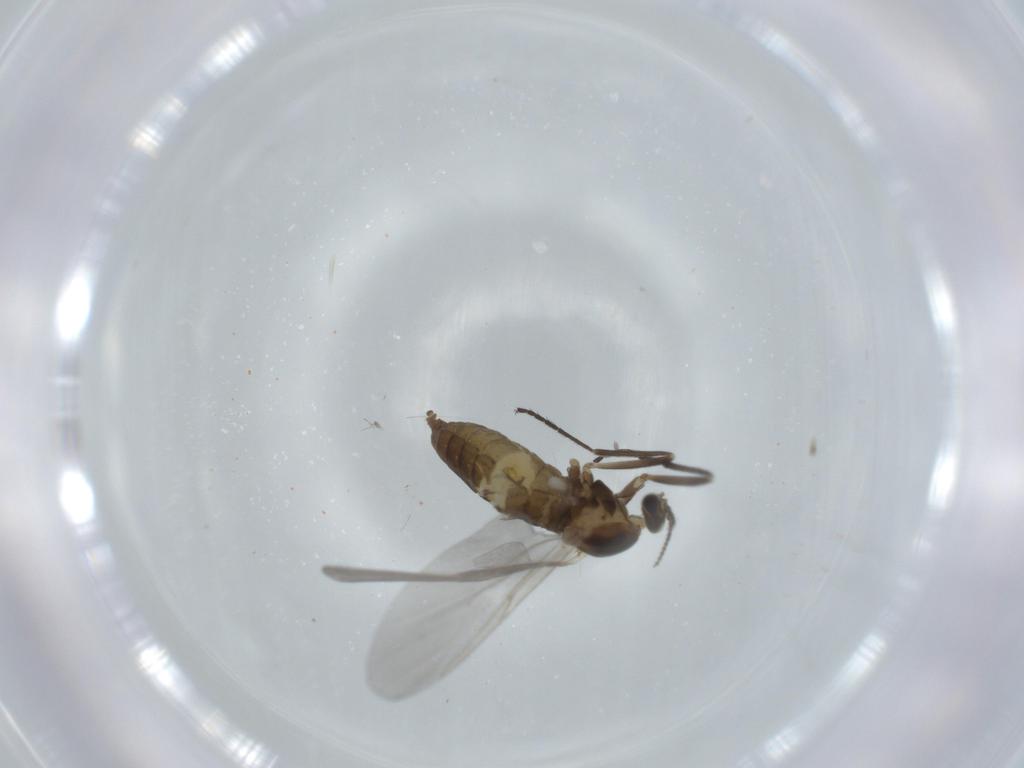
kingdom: Animalia
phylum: Arthropoda
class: Insecta
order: Diptera
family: Cecidomyiidae
